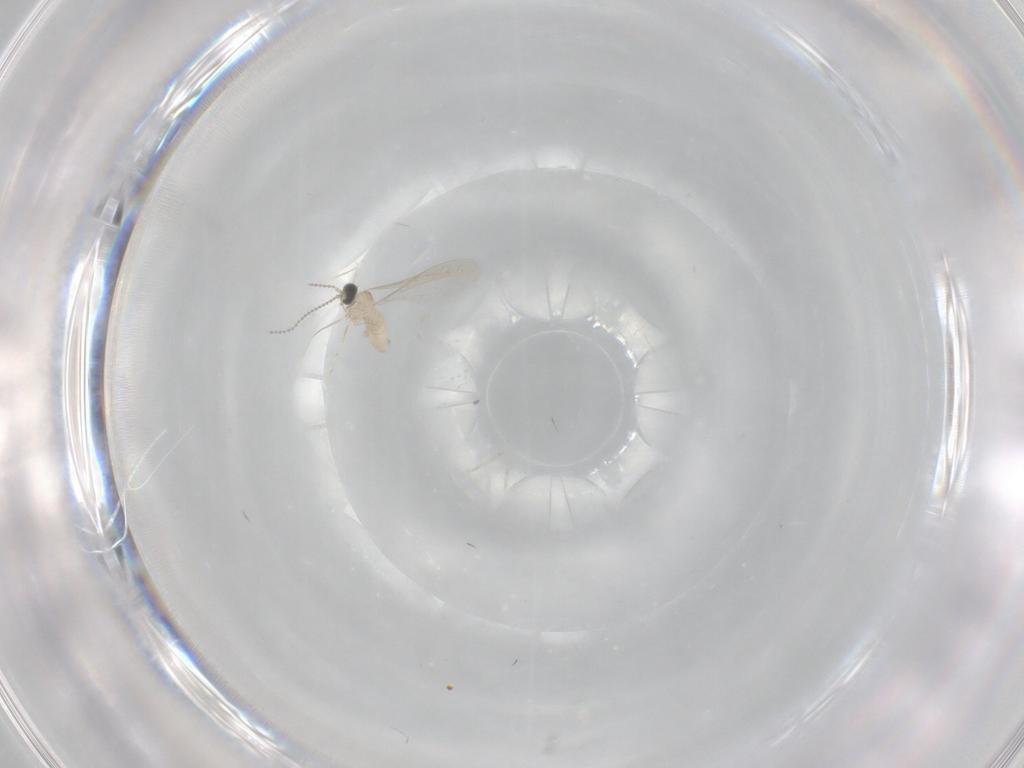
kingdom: Animalia
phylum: Arthropoda
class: Insecta
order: Diptera
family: Cecidomyiidae
